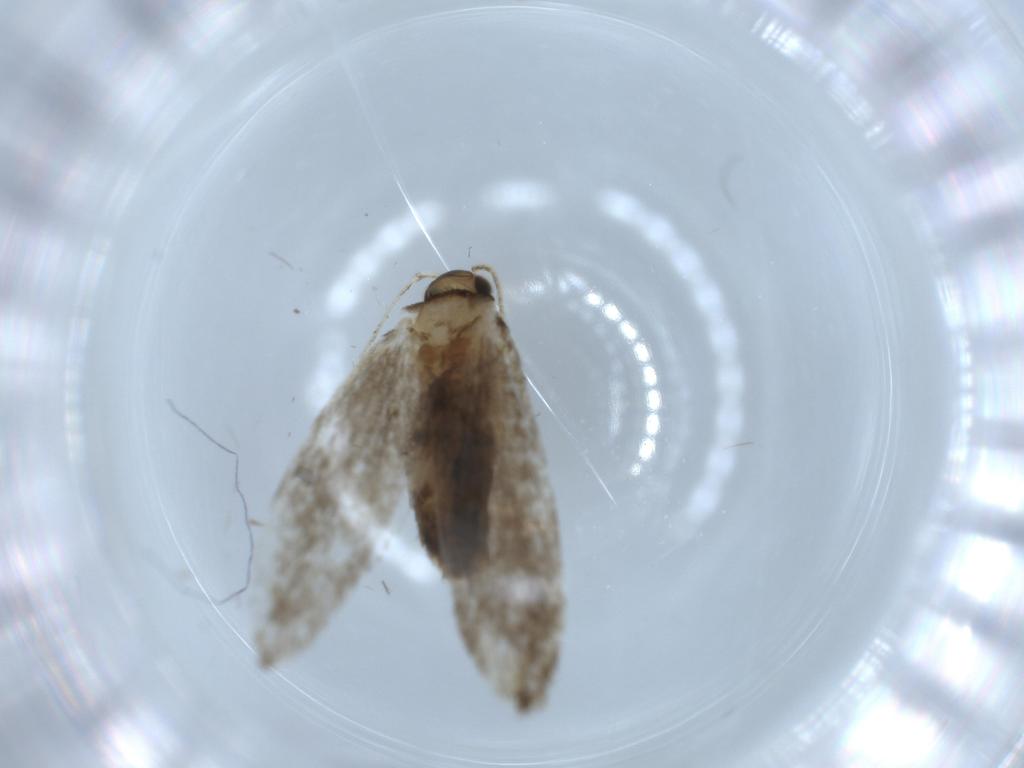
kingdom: Animalia
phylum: Arthropoda
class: Insecta
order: Lepidoptera
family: Tineidae
